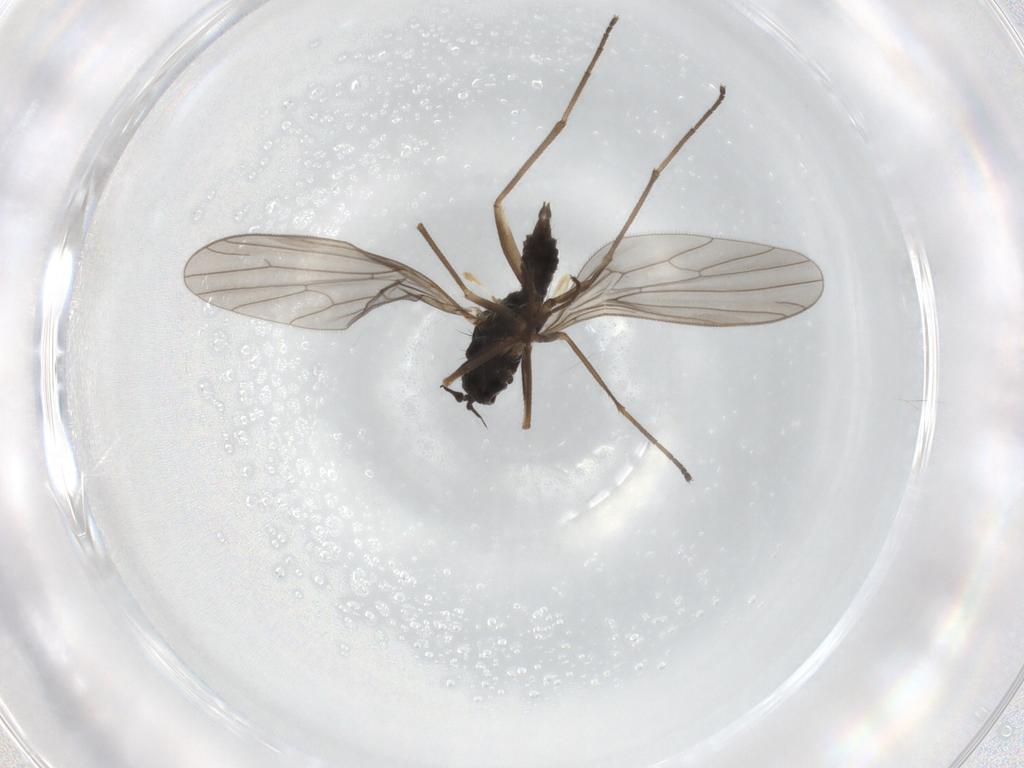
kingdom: Animalia
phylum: Arthropoda
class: Insecta
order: Diptera
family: Empididae
